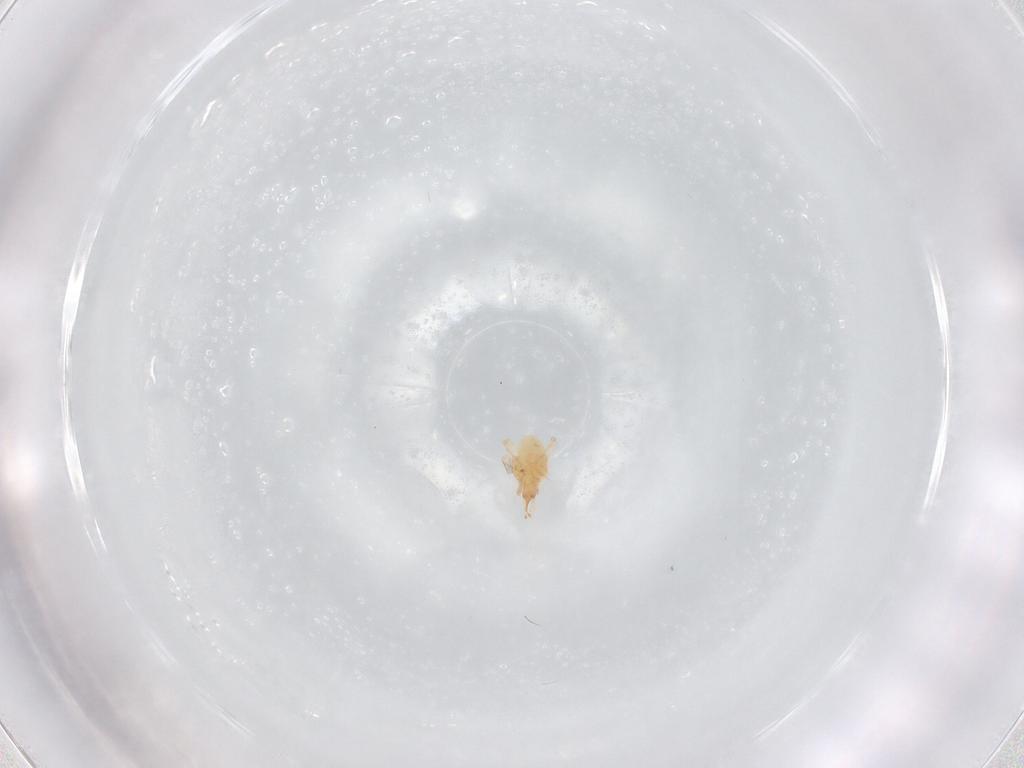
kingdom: Animalia
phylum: Arthropoda
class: Arachnida
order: Trombidiformes
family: Cunaxidae
